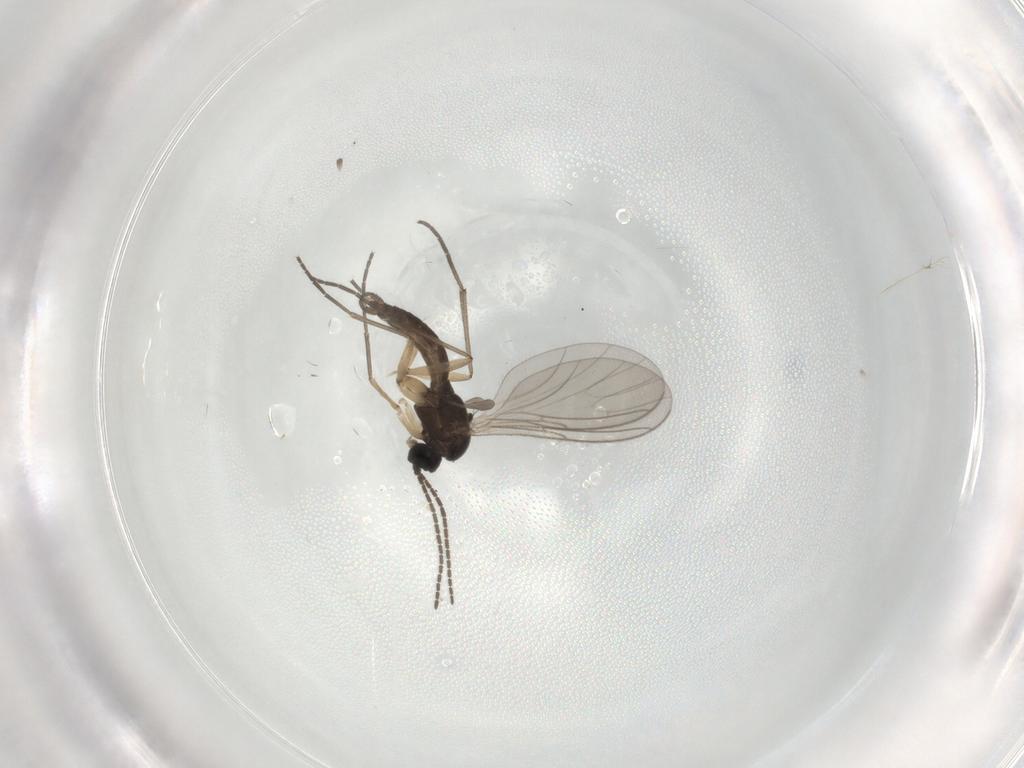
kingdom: Animalia
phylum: Arthropoda
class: Insecta
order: Diptera
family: Sciaridae
